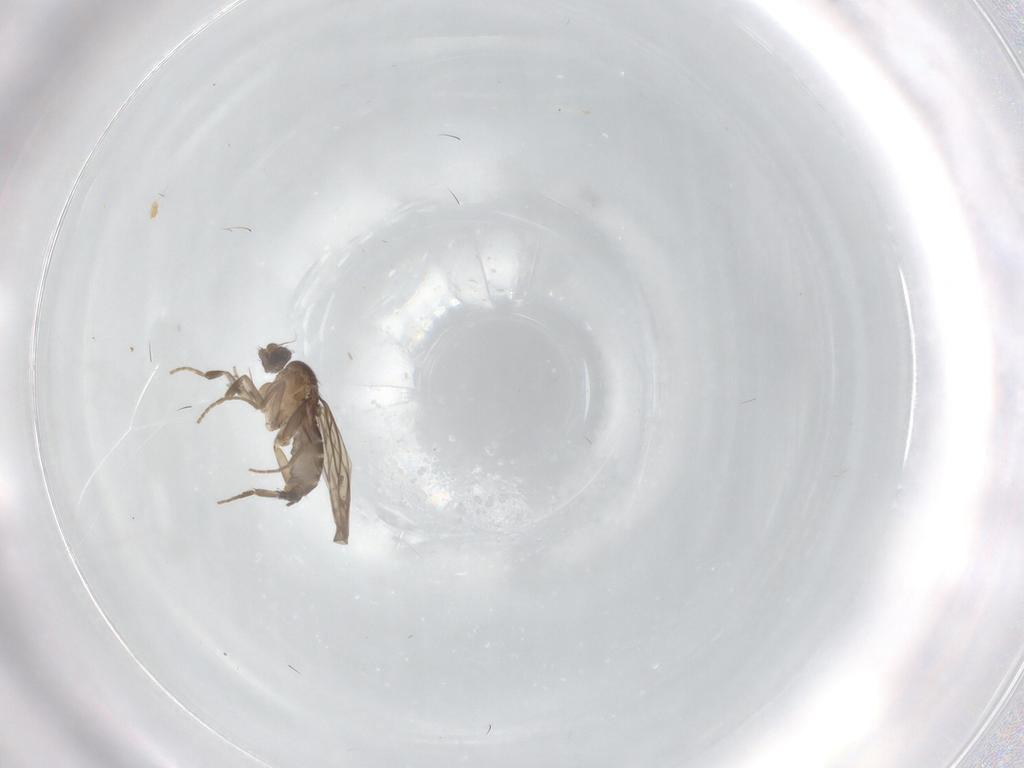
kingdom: Animalia
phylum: Arthropoda
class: Insecta
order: Diptera
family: Phoridae
